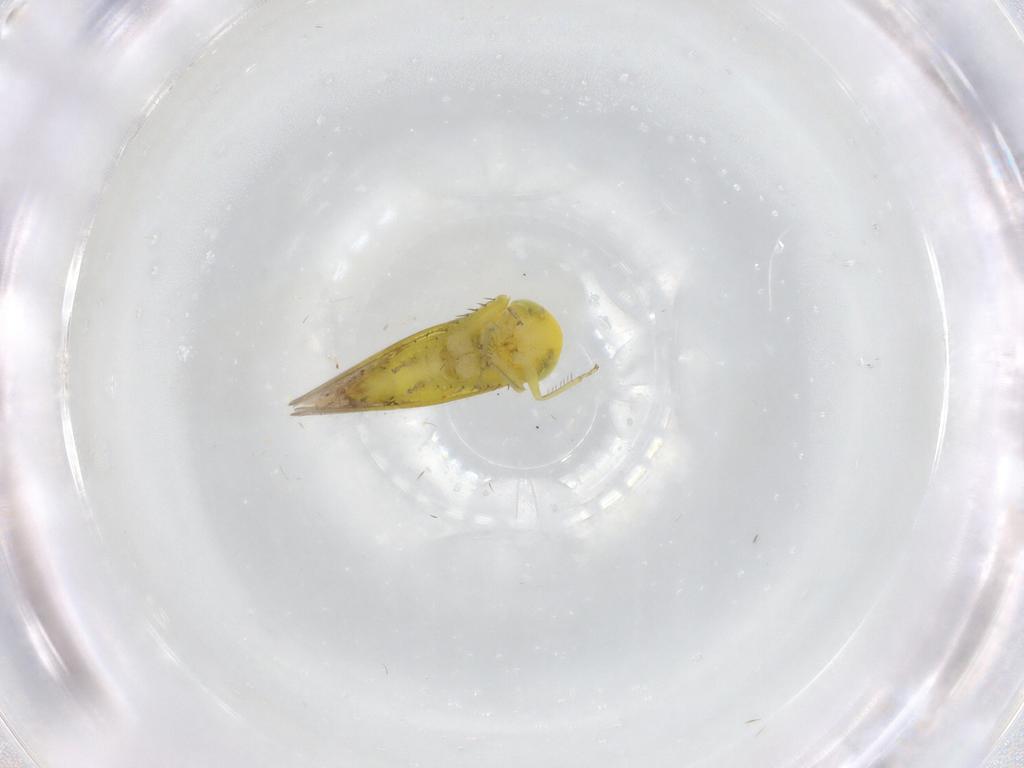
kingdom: Animalia
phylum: Arthropoda
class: Insecta
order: Hemiptera
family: Cicadellidae
